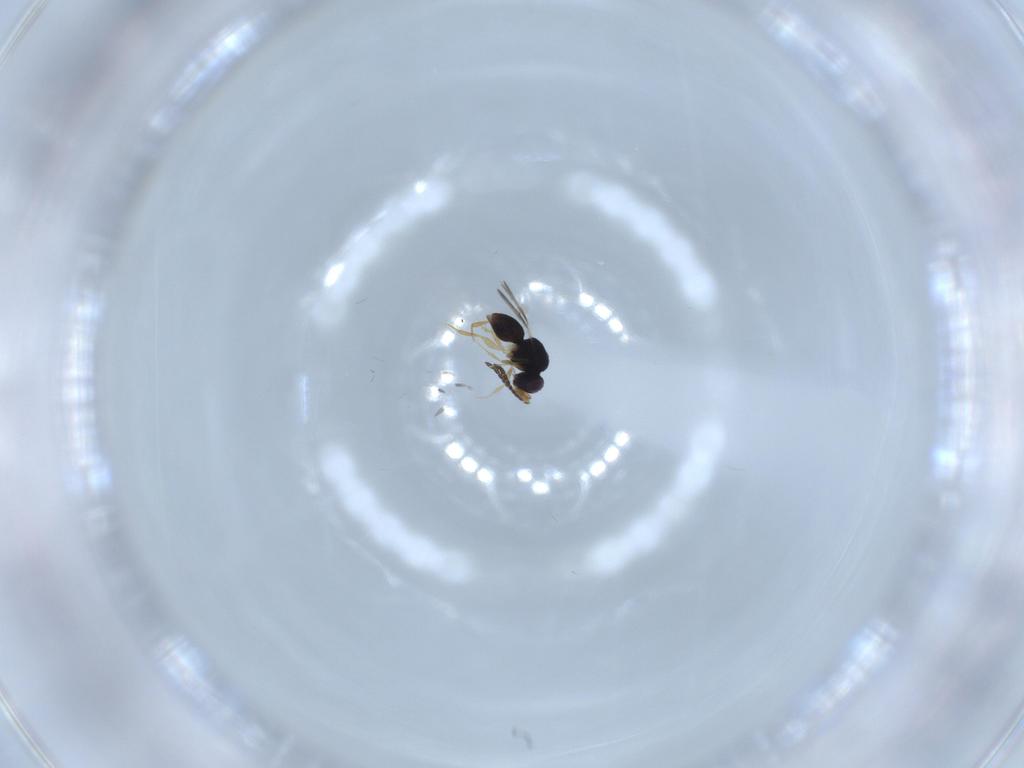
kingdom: Animalia
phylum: Arthropoda
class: Insecta
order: Hymenoptera
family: Ceraphronidae
